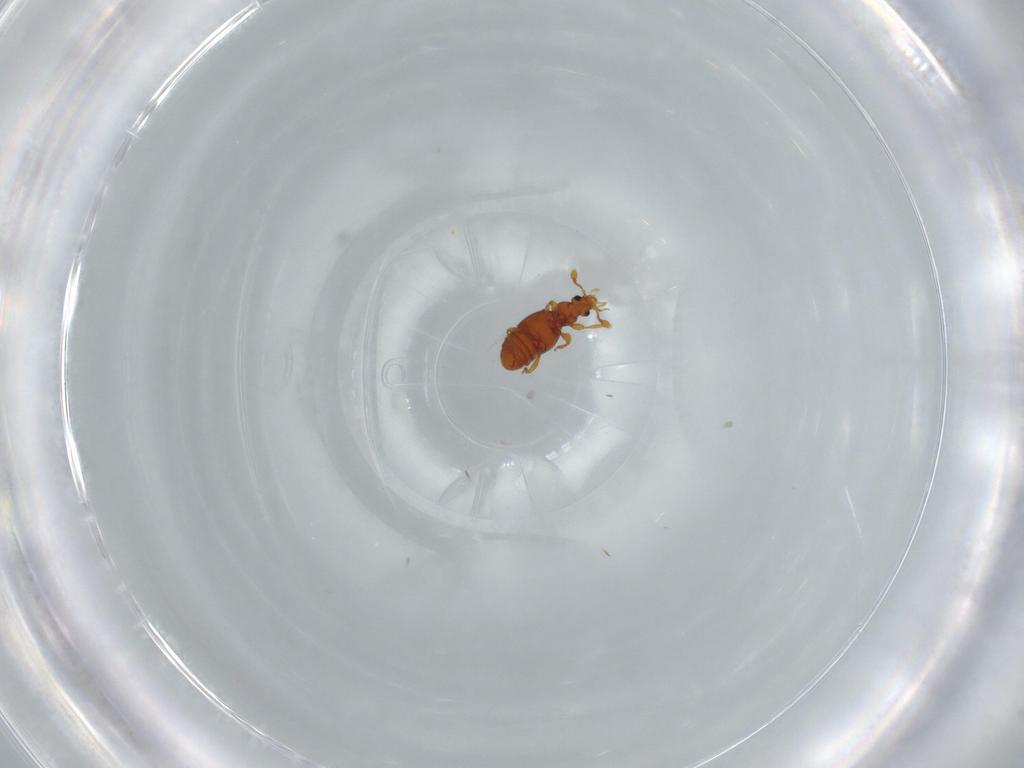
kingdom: Animalia
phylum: Arthropoda
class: Insecta
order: Coleoptera
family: Staphylinidae
